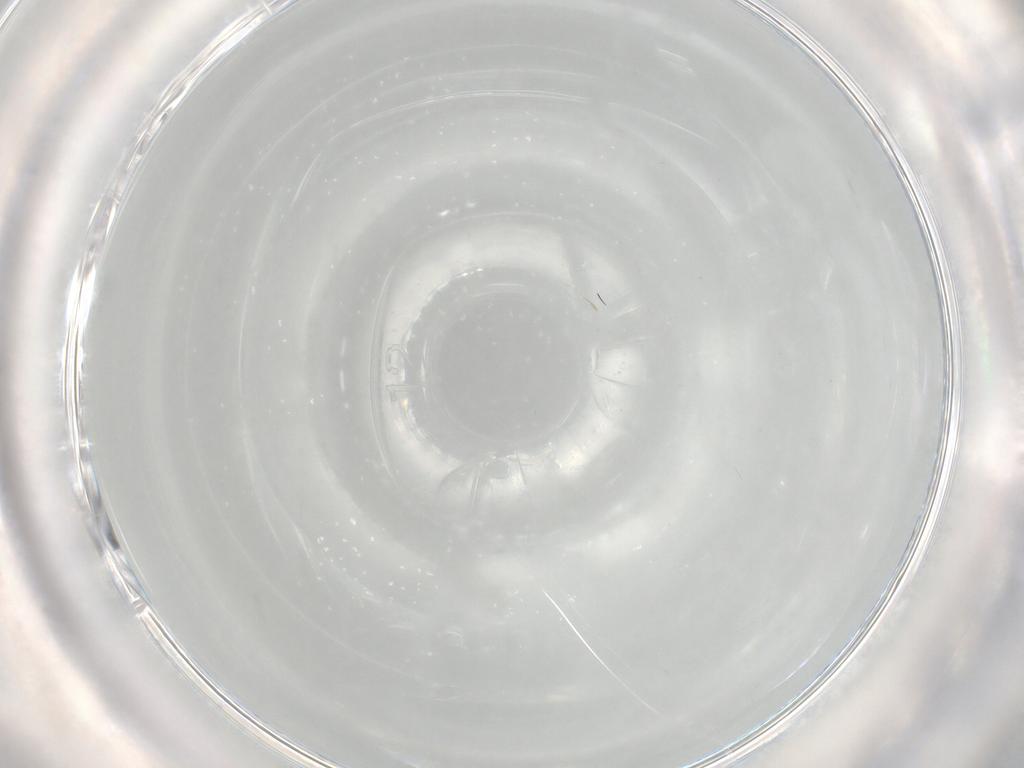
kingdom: Animalia
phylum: Arthropoda
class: Insecta
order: Diptera
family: Cecidomyiidae
